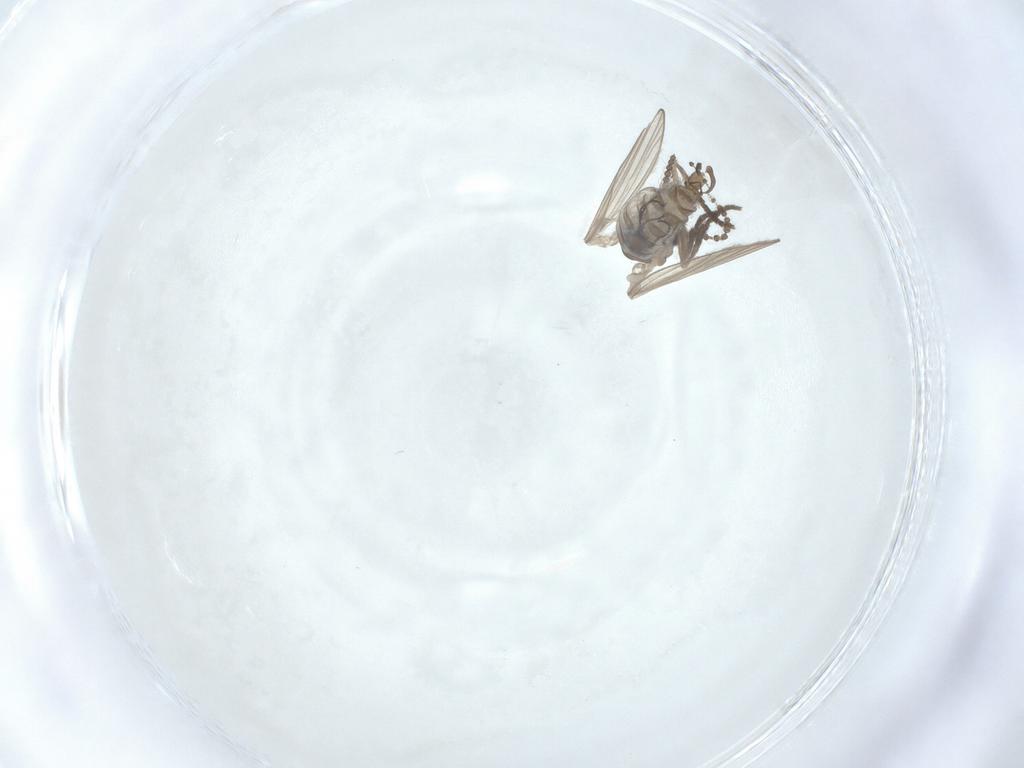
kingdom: Animalia
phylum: Arthropoda
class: Insecta
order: Diptera
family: Psychodidae
